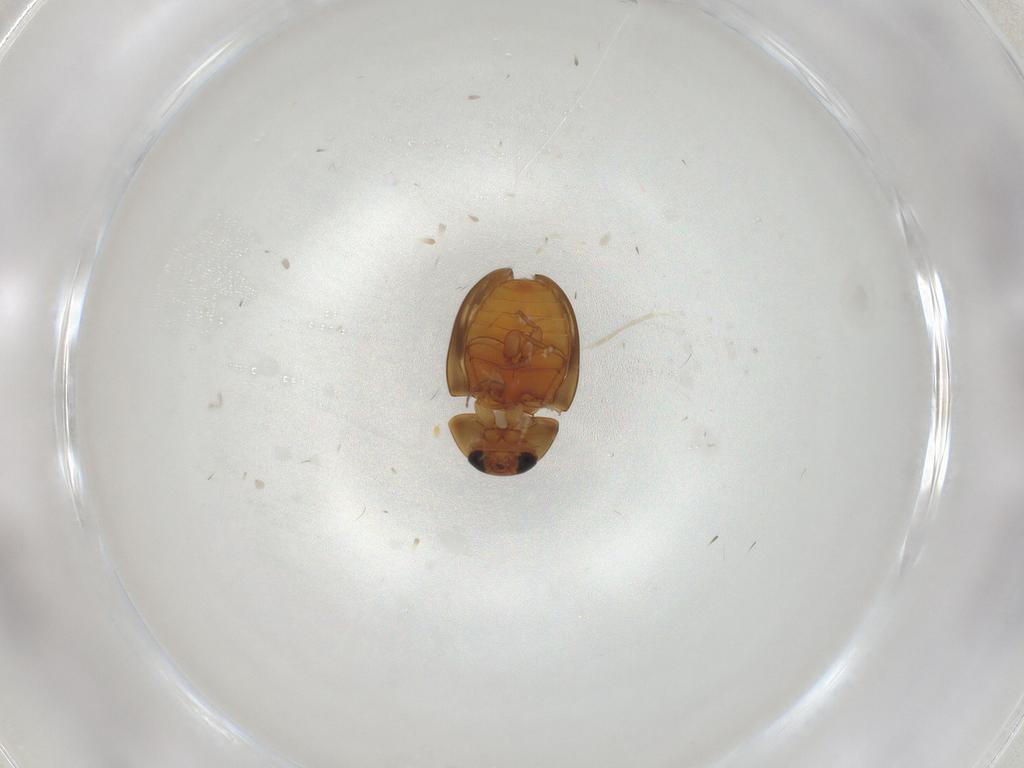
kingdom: Animalia
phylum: Arthropoda
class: Insecta
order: Coleoptera
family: Phalacridae
